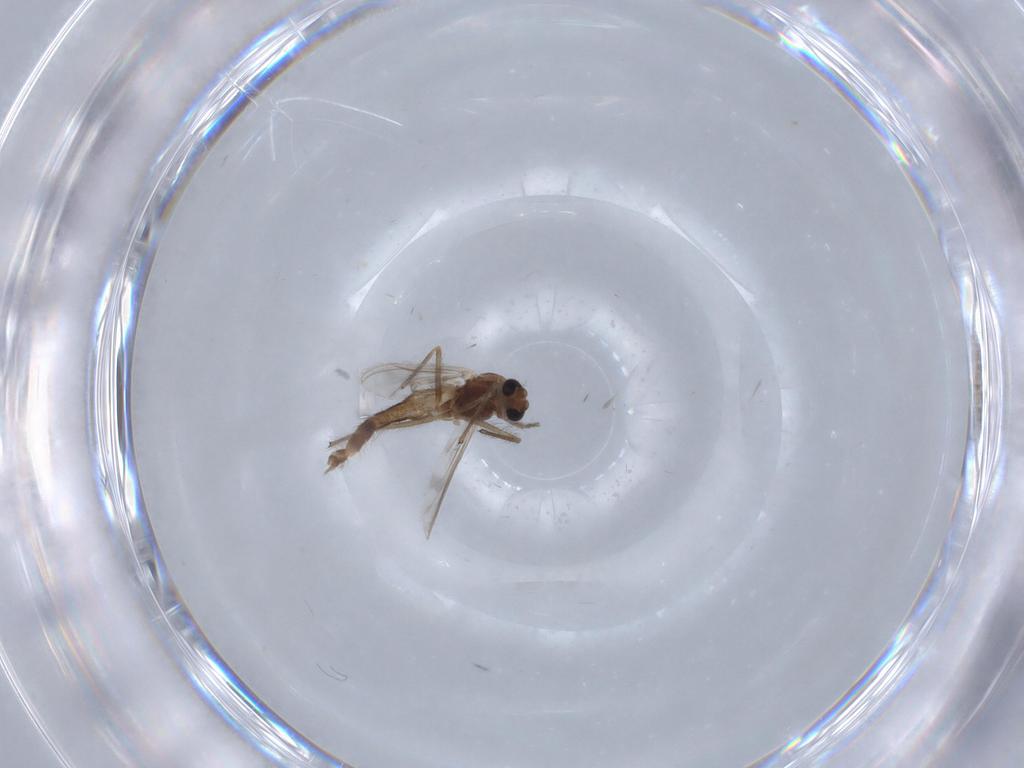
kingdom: Animalia
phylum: Arthropoda
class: Insecta
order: Diptera
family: Chironomidae
